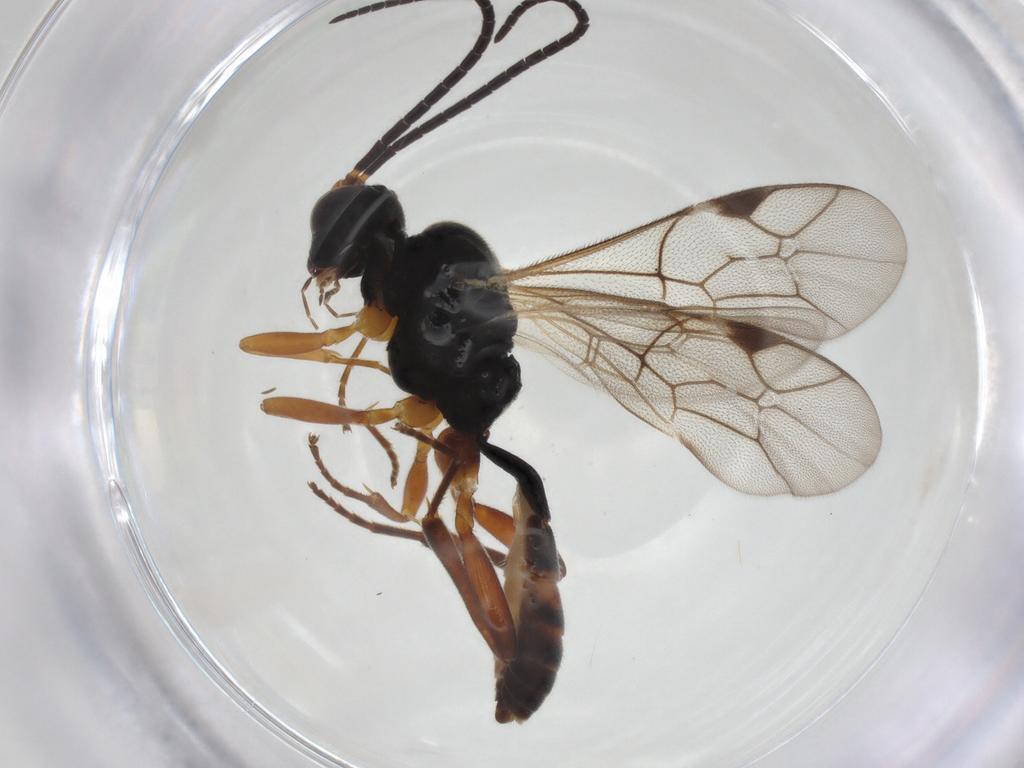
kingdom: Animalia
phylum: Arthropoda
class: Insecta
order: Hymenoptera
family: Ichneumonidae
